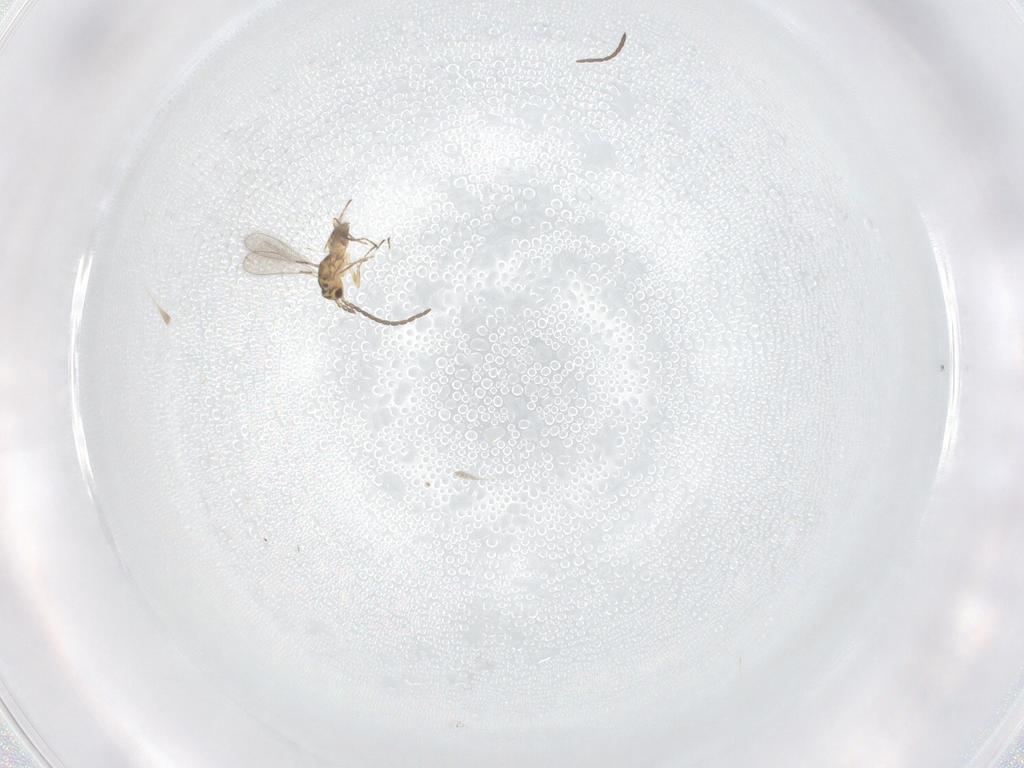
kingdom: Animalia
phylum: Arthropoda
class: Insecta
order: Hymenoptera
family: Mymaridae
